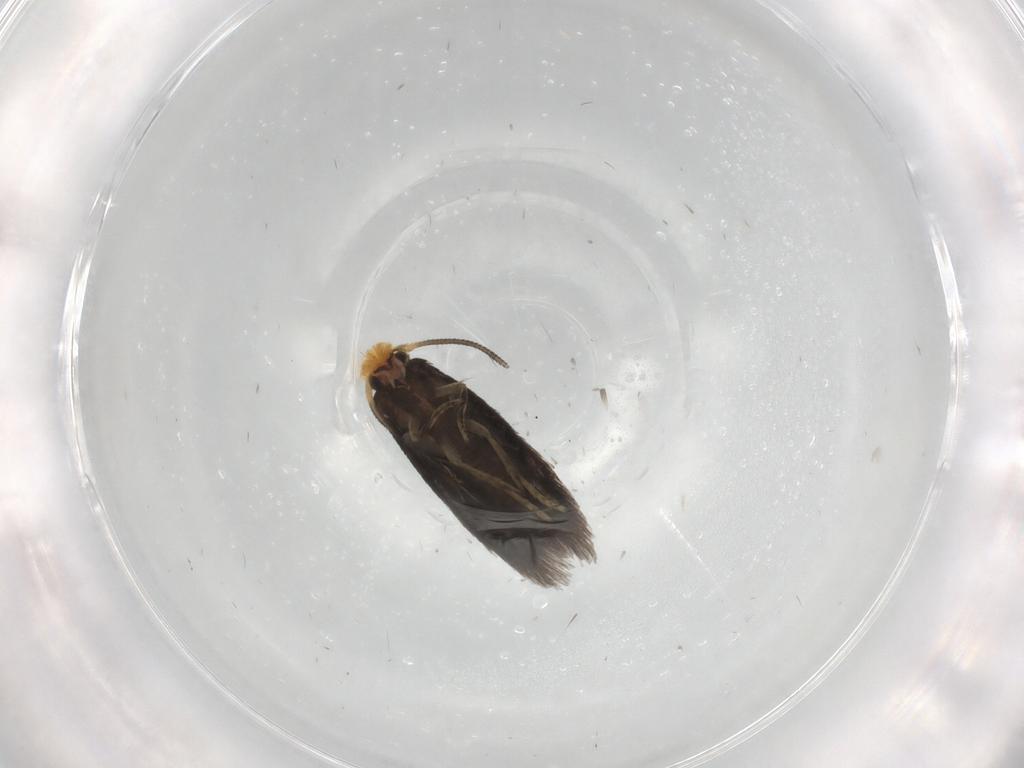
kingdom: Animalia
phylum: Arthropoda
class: Insecta
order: Lepidoptera
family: Nepticulidae
